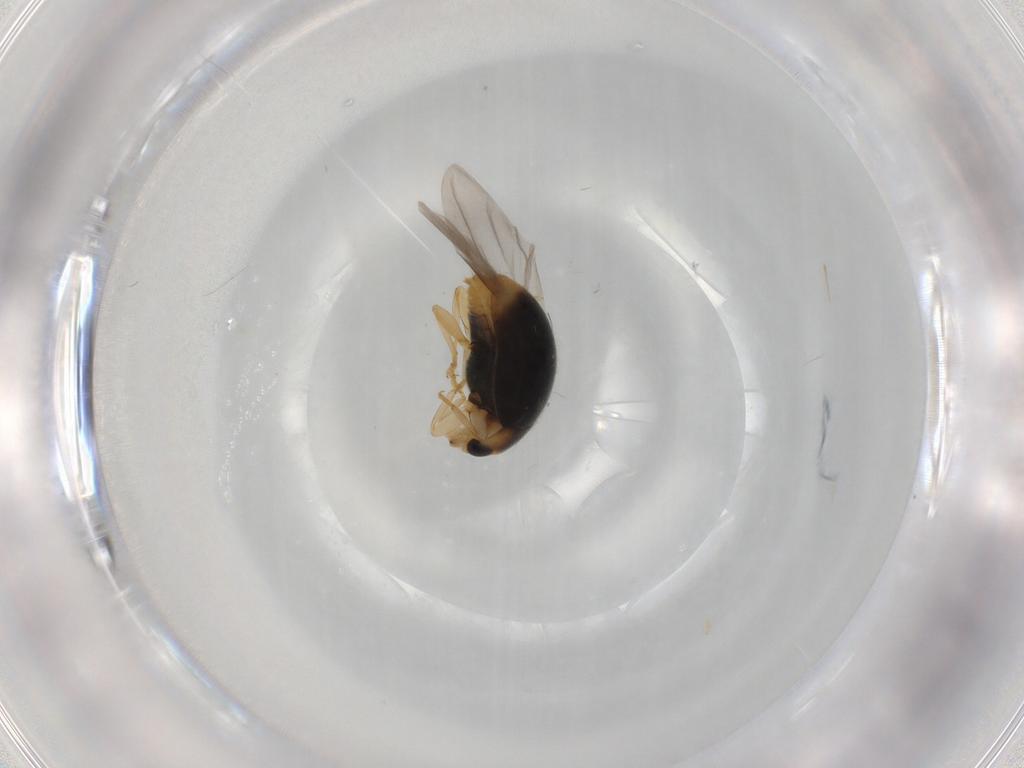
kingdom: Animalia
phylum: Arthropoda
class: Insecta
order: Coleoptera
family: Coccinellidae
